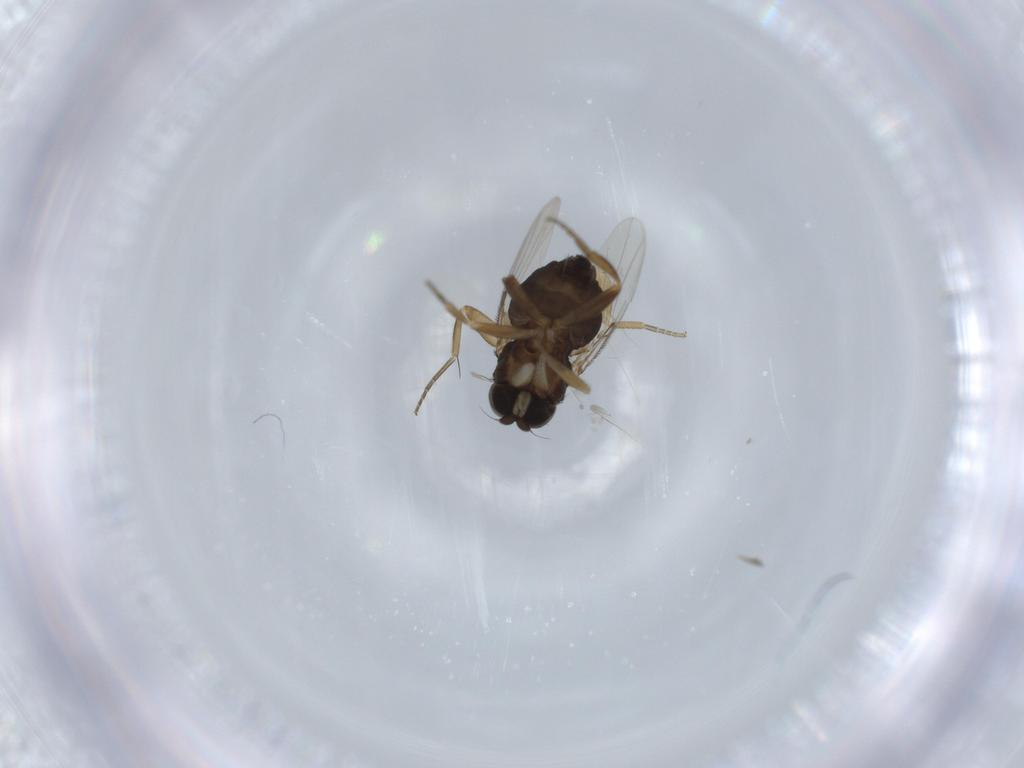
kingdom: Animalia
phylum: Arthropoda
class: Insecta
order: Diptera
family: Phoridae
